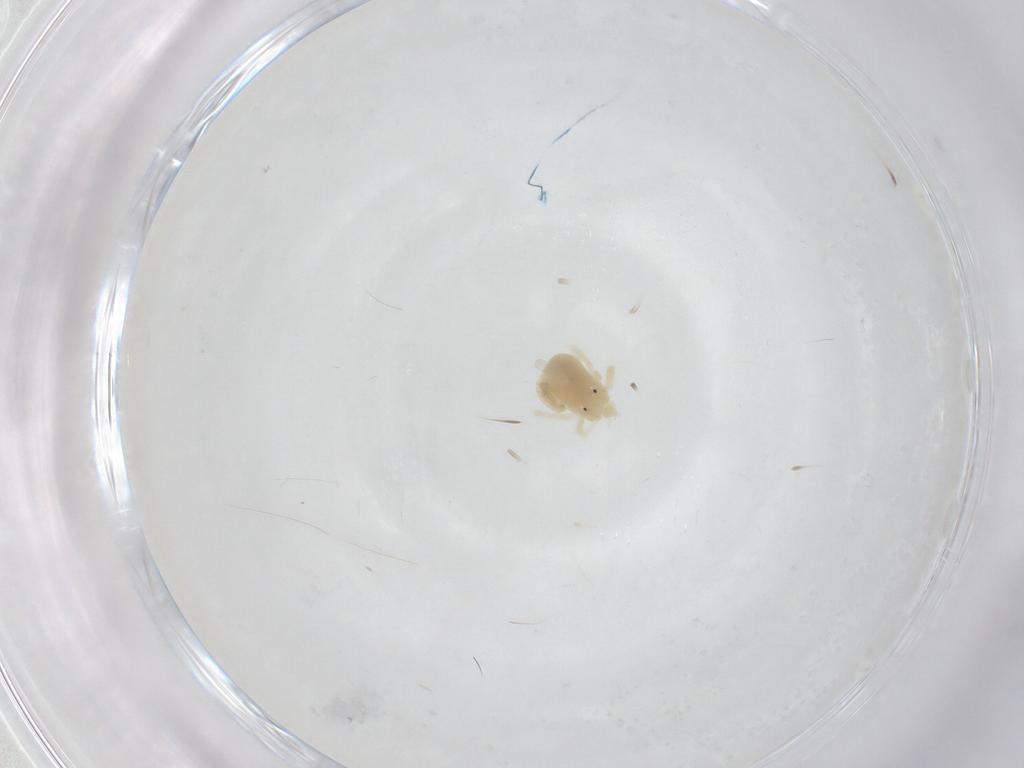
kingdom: Animalia
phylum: Arthropoda
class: Arachnida
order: Trombidiformes
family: Anystidae
